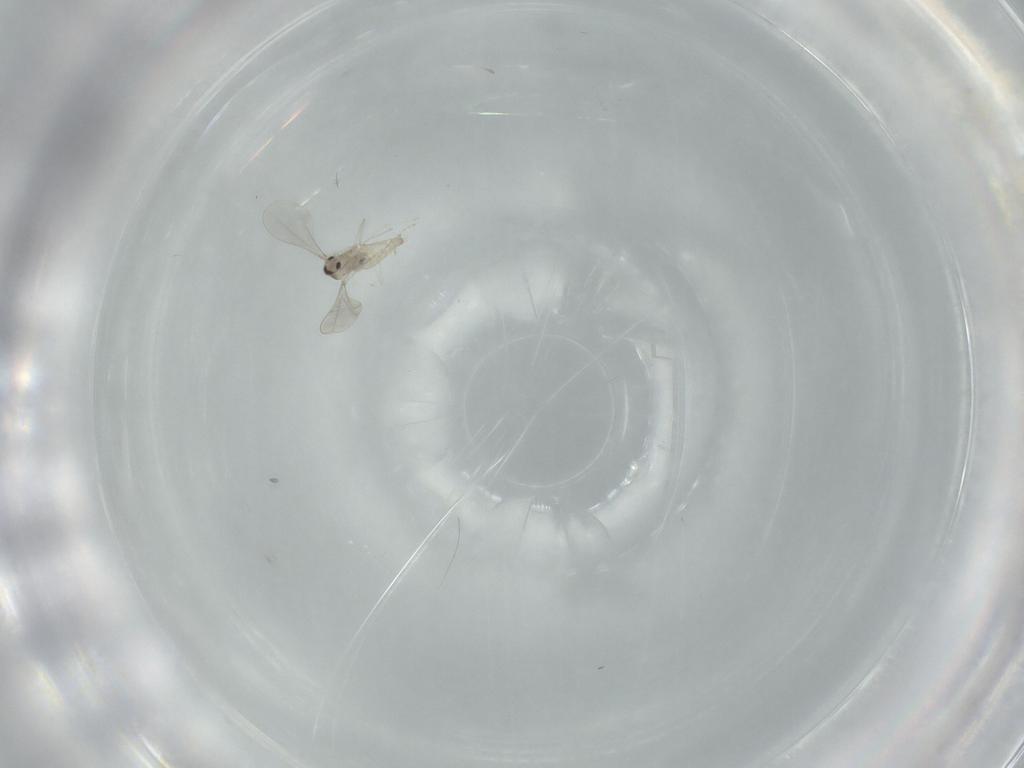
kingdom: Animalia
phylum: Arthropoda
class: Insecta
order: Diptera
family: Cecidomyiidae
